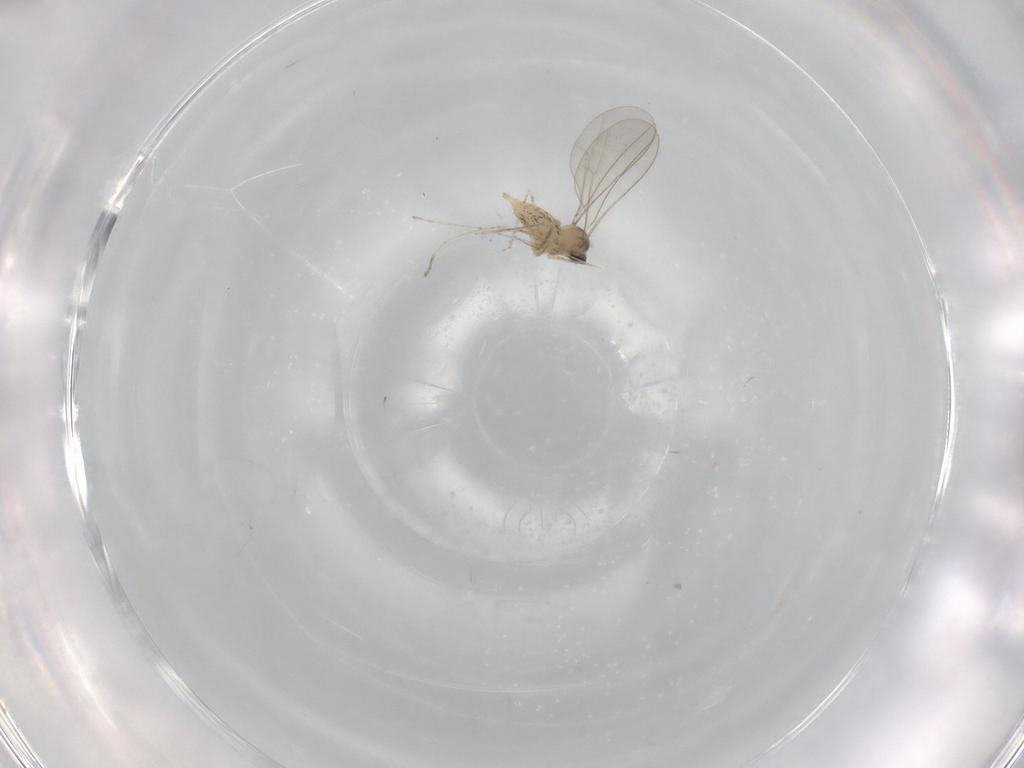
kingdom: Animalia
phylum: Arthropoda
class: Insecta
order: Diptera
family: Cecidomyiidae
